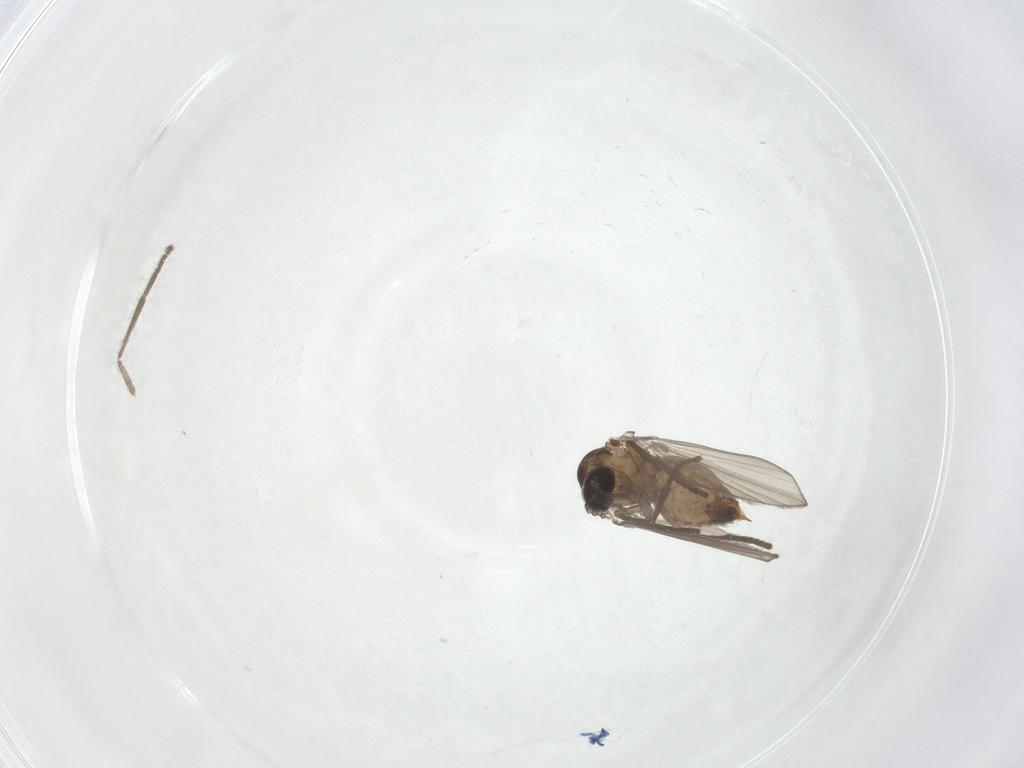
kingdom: Animalia
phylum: Arthropoda
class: Insecta
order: Diptera
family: Psychodidae
